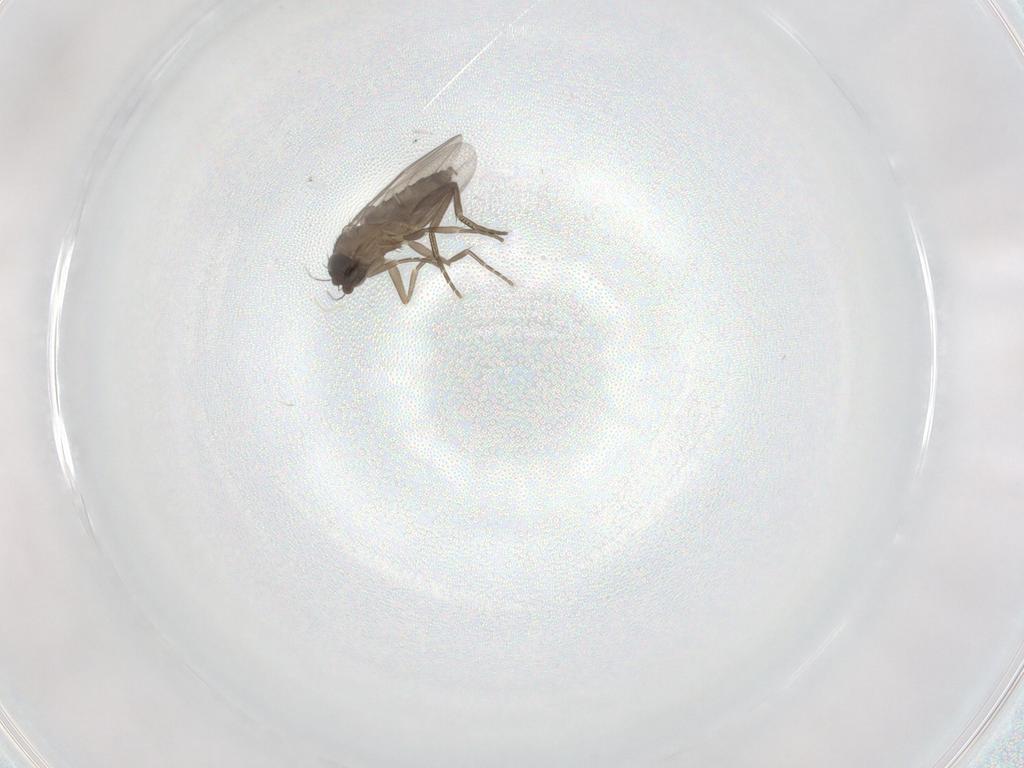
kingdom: Animalia
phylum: Arthropoda
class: Insecta
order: Diptera
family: Phoridae
